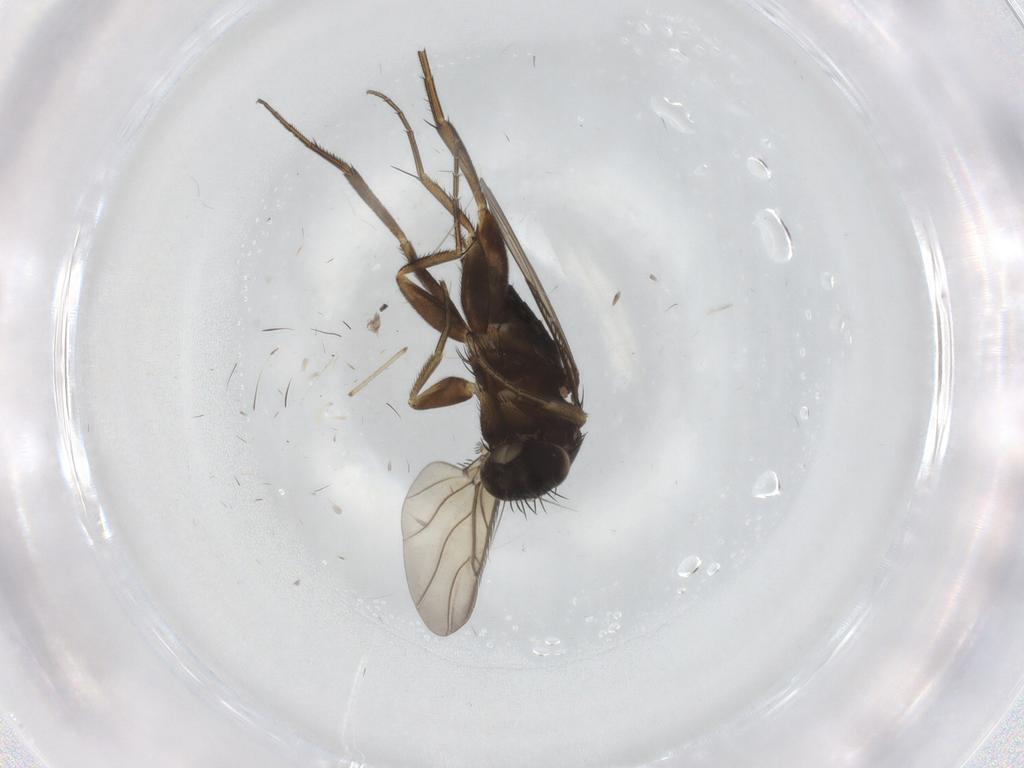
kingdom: Animalia
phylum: Arthropoda
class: Insecta
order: Diptera
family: Phoridae
